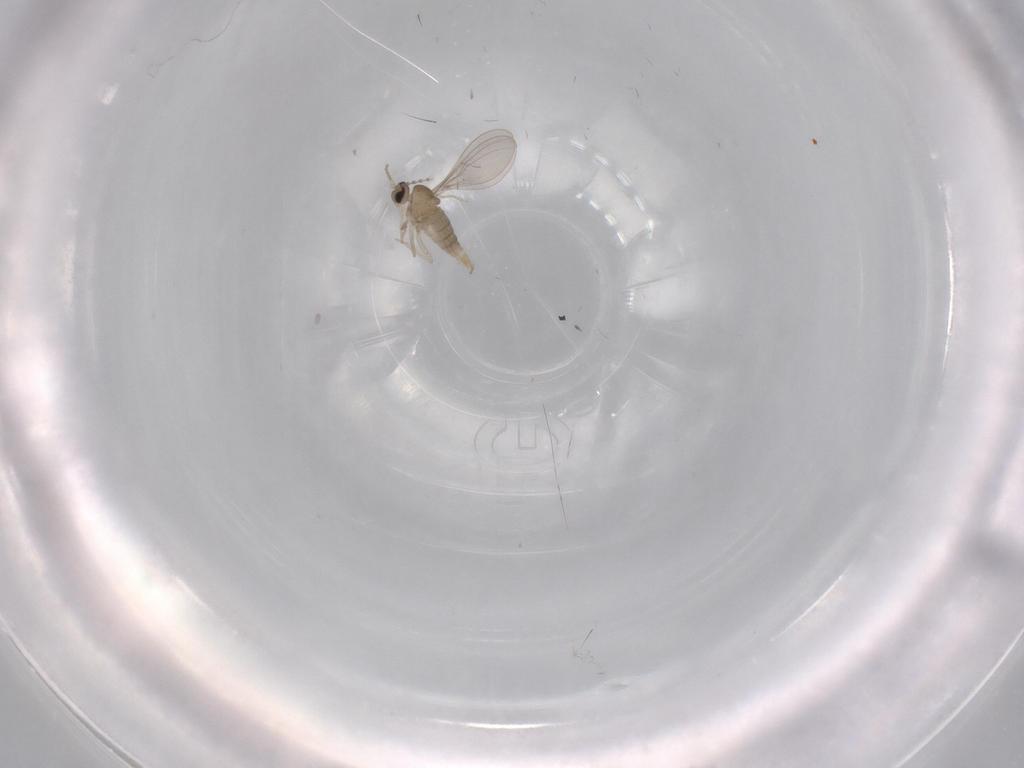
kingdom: Animalia
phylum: Arthropoda
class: Insecta
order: Diptera
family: Cecidomyiidae
